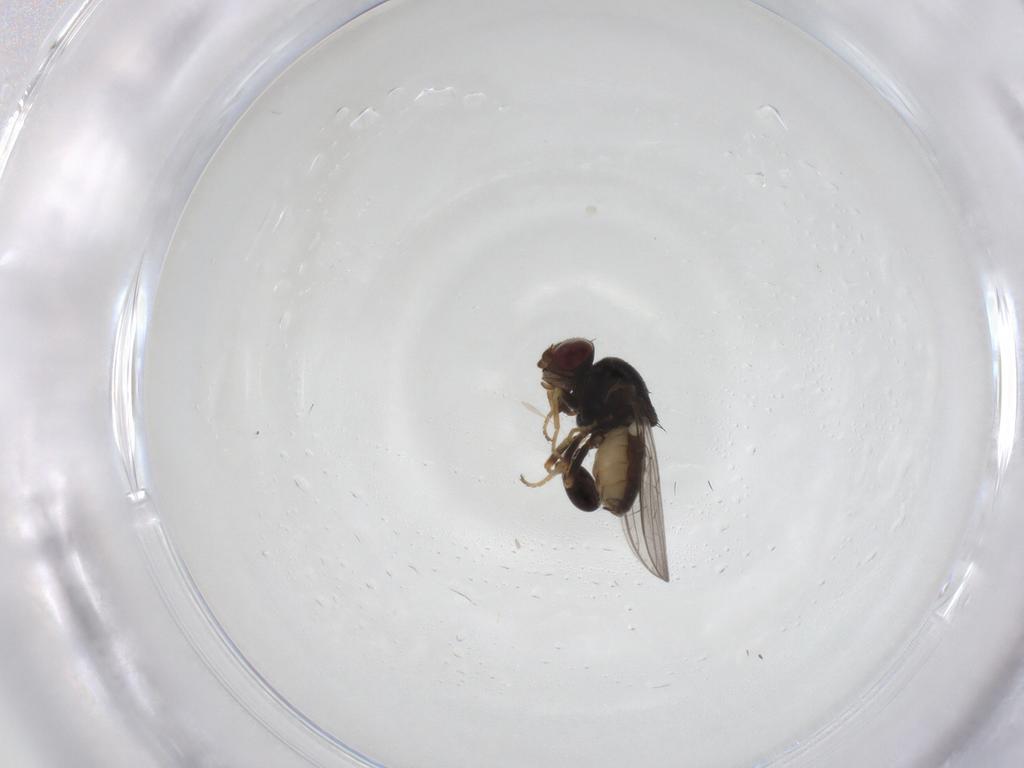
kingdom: Animalia
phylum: Arthropoda
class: Insecta
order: Diptera
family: Chloropidae
